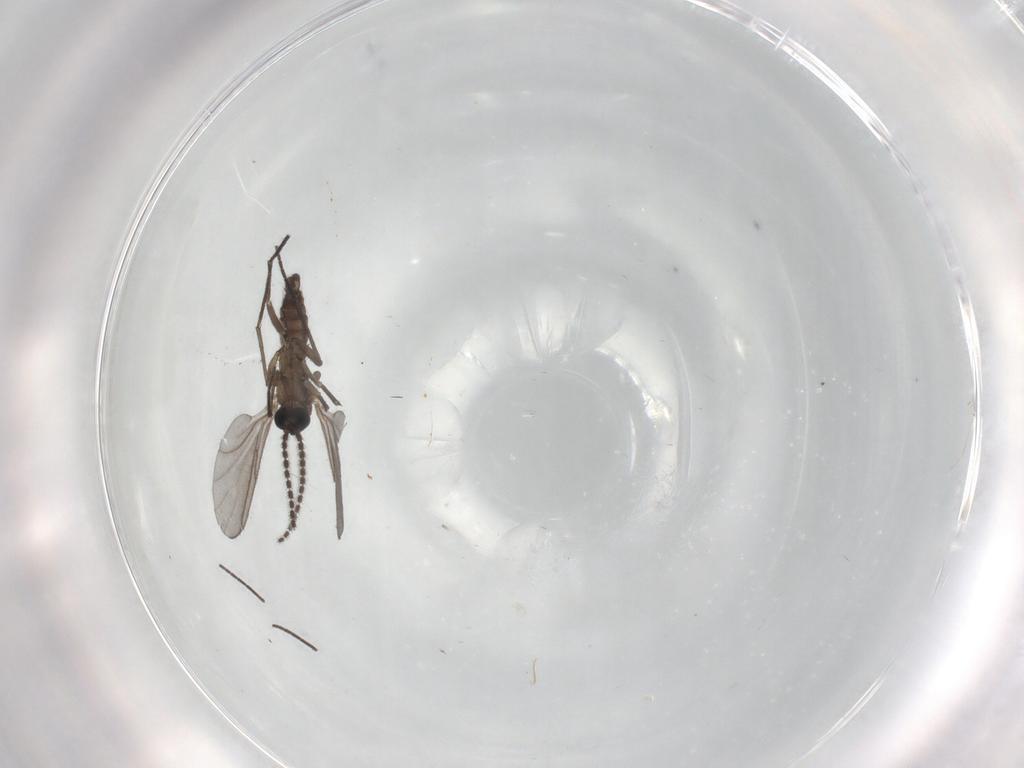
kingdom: Animalia
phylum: Arthropoda
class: Insecta
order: Diptera
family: Sciaridae
